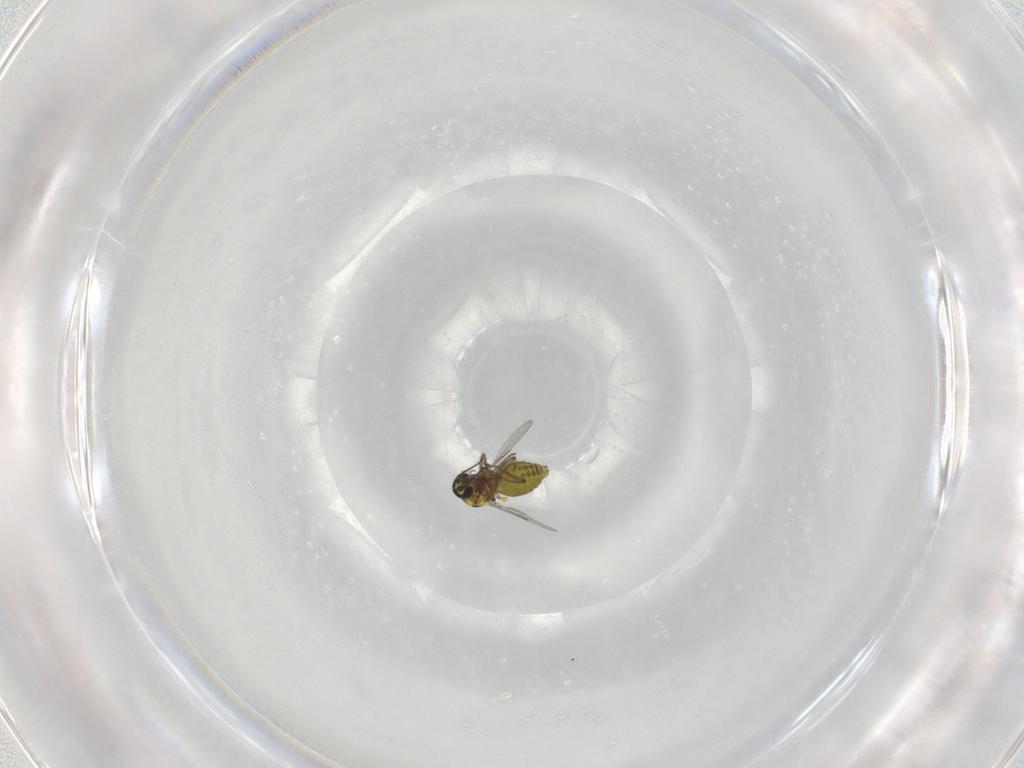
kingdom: Animalia
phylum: Arthropoda
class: Insecta
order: Diptera
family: Ceratopogonidae
